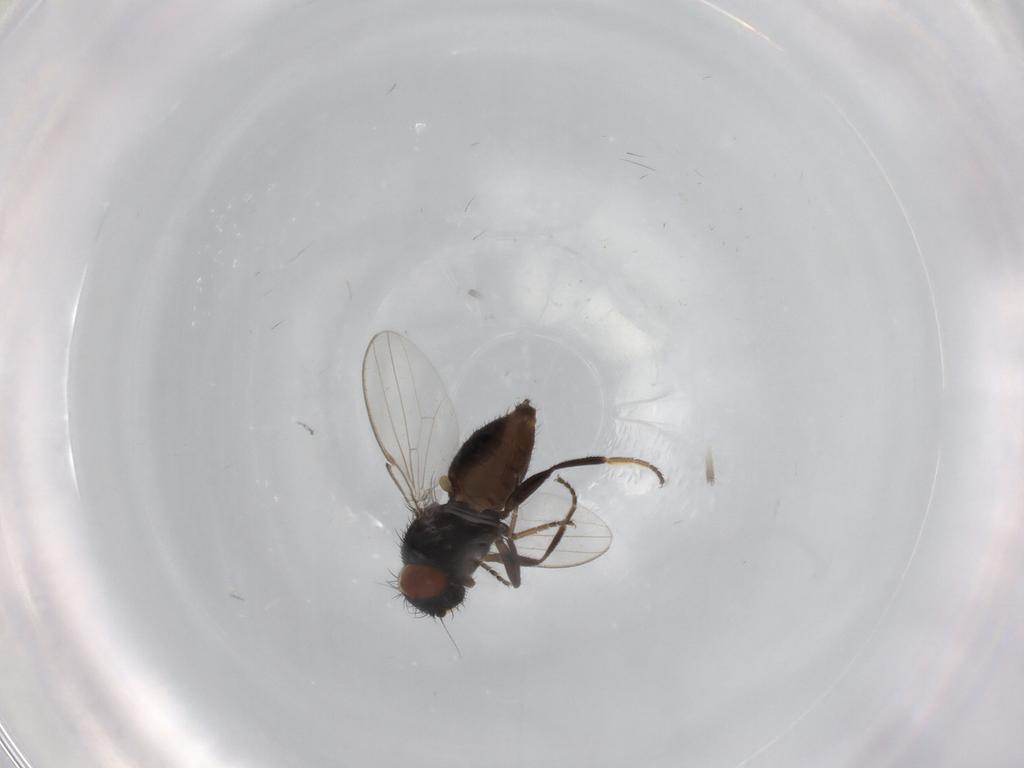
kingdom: Animalia
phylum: Arthropoda
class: Insecta
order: Diptera
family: Milichiidae
